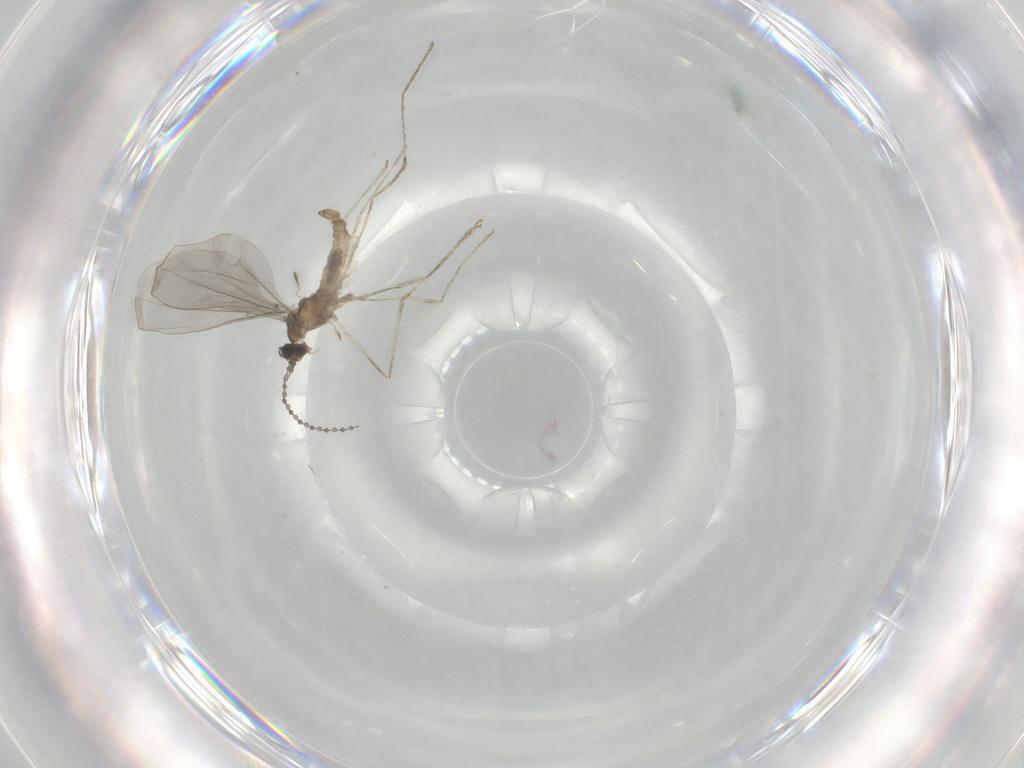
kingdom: Animalia
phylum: Arthropoda
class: Insecta
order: Diptera
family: Cecidomyiidae
